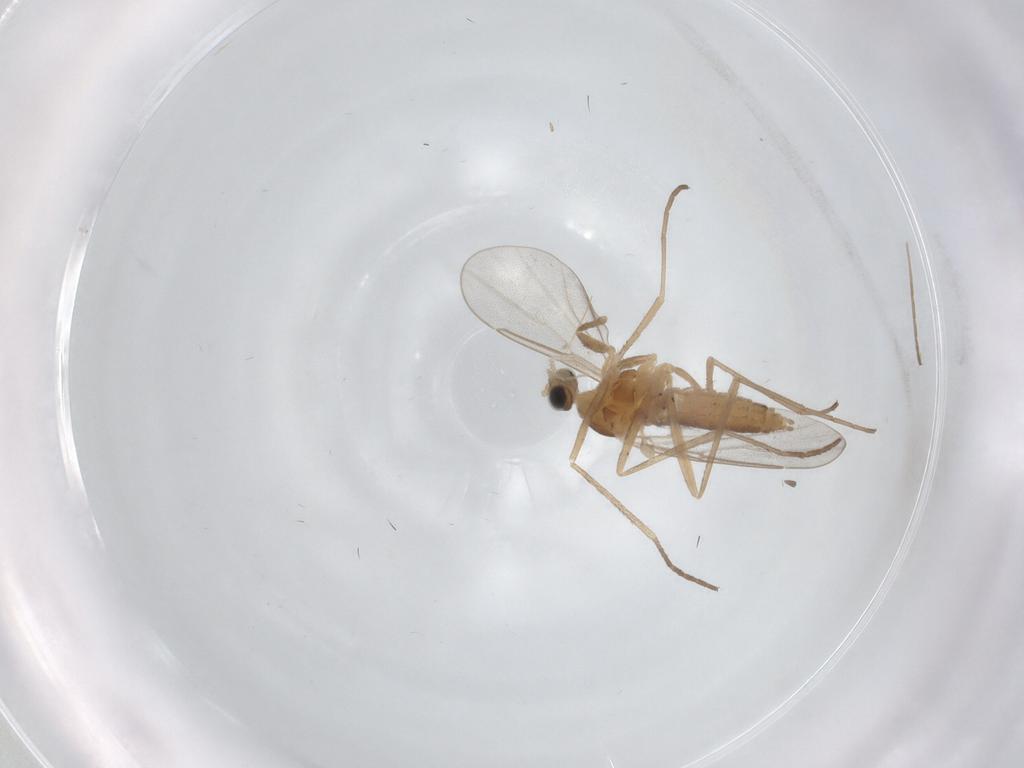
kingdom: Animalia
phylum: Arthropoda
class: Insecta
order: Diptera
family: Cecidomyiidae
